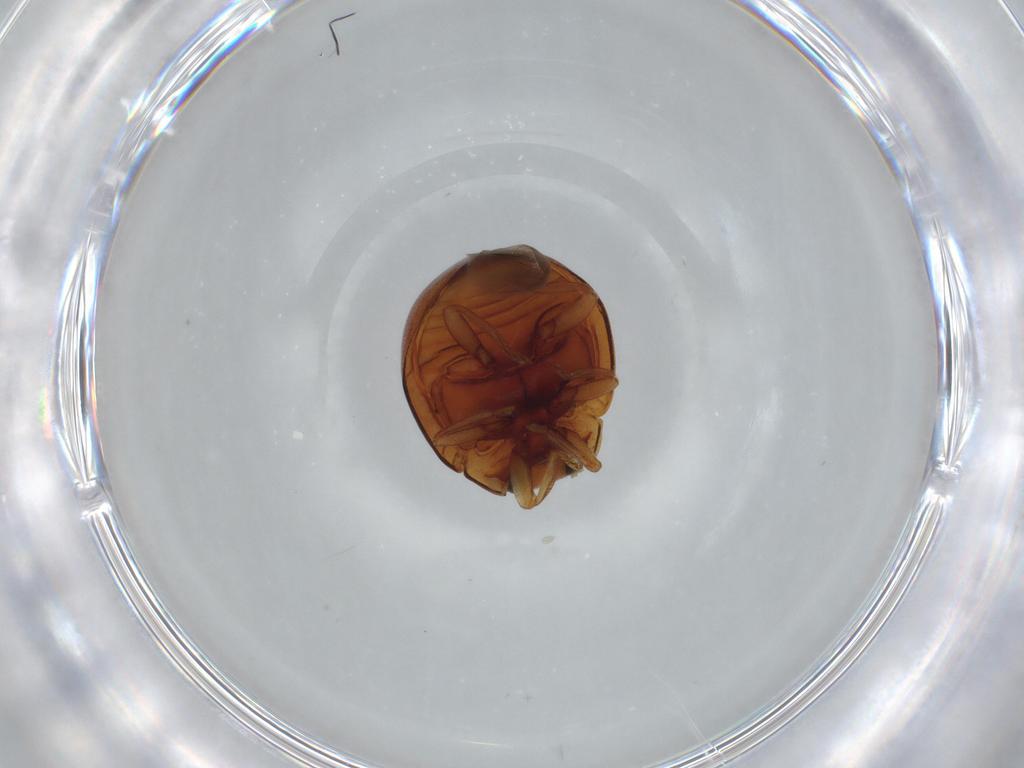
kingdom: Animalia
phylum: Arthropoda
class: Insecta
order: Coleoptera
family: Coccinellidae
